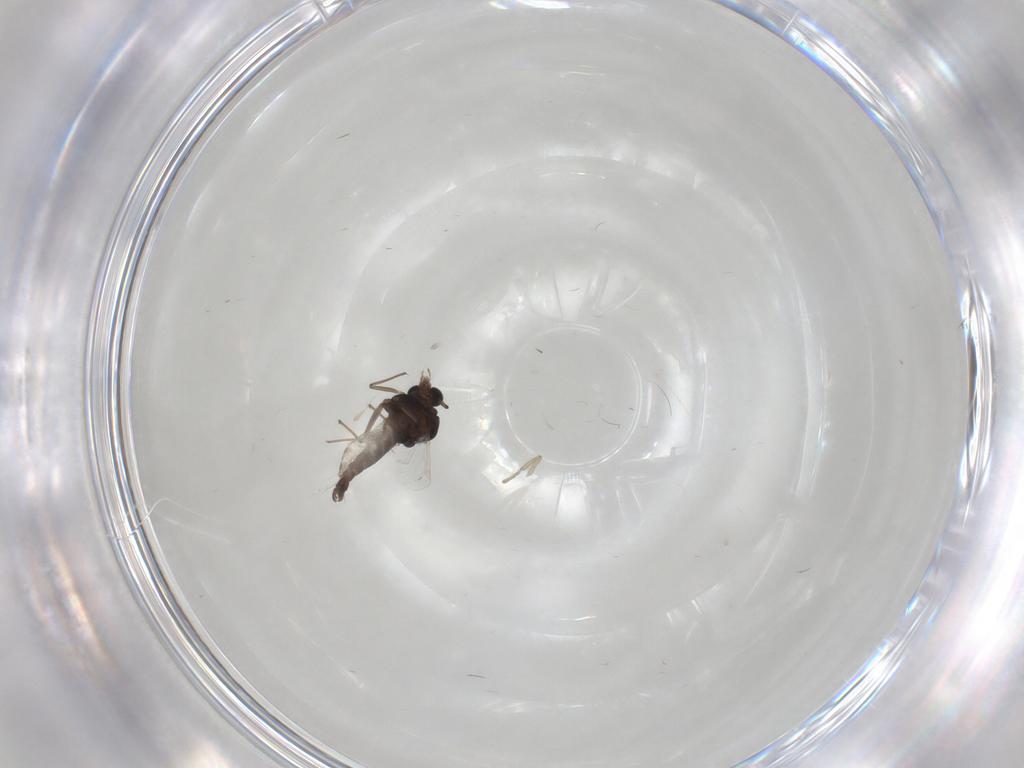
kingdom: Animalia
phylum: Arthropoda
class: Insecta
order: Diptera
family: Chironomidae
